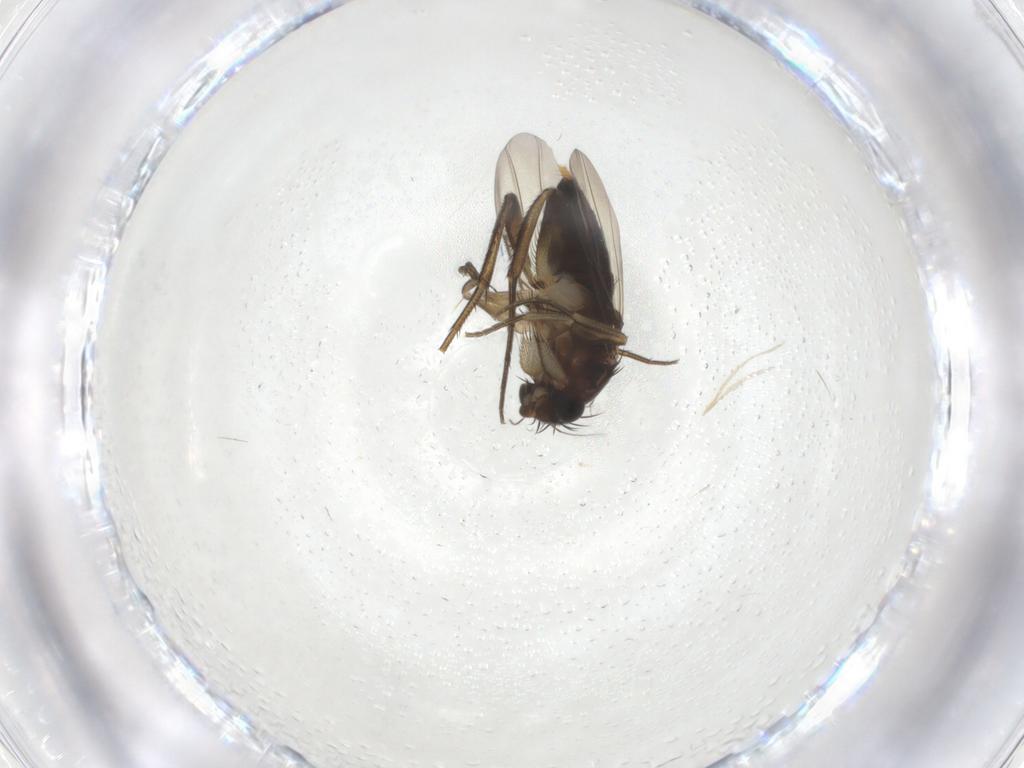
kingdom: Animalia
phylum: Arthropoda
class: Insecta
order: Diptera
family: Phoridae
